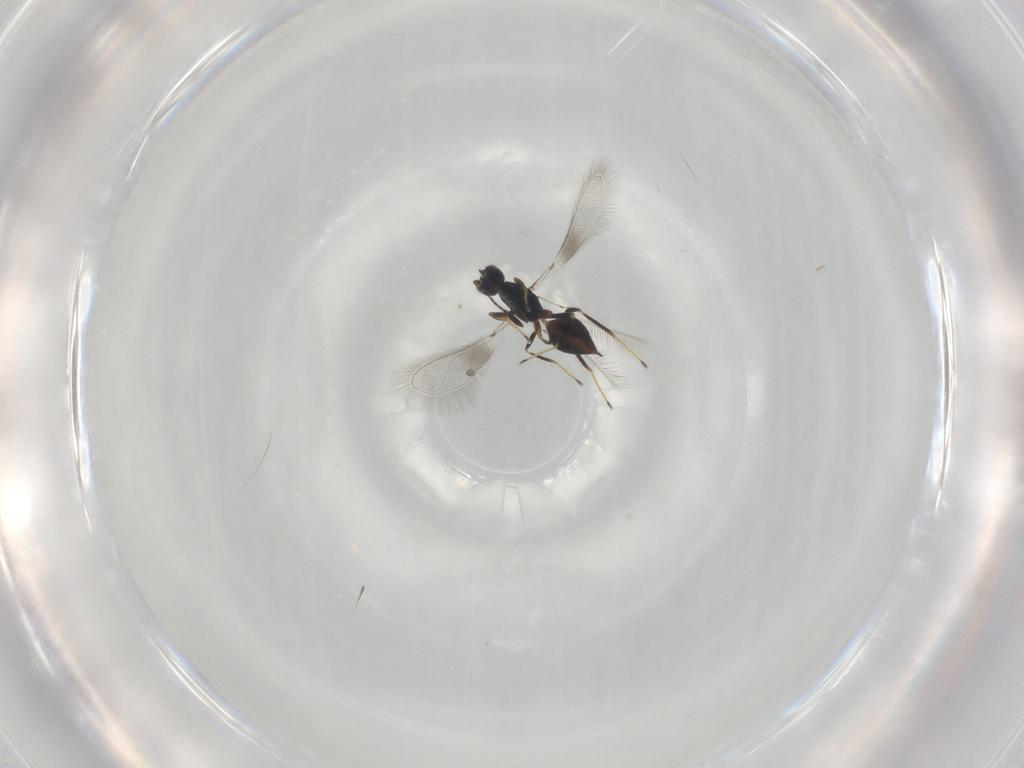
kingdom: Animalia
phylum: Arthropoda
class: Insecta
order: Hymenoptera
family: Mymaridae
